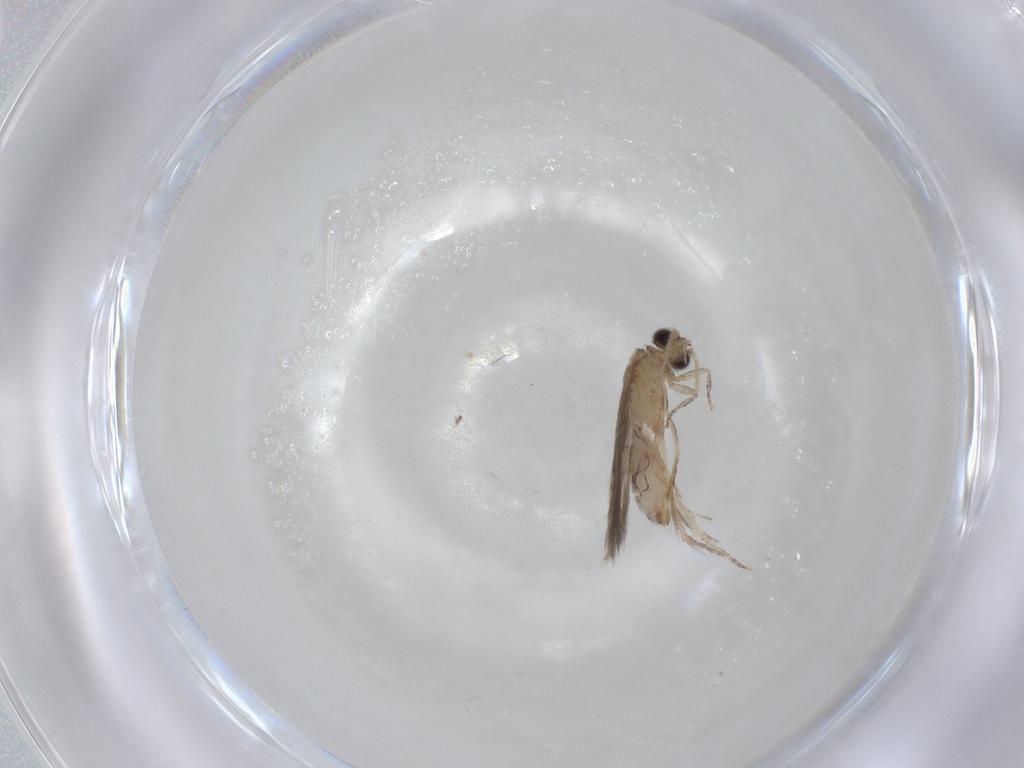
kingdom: Animalia
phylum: Arthropoda
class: Insecta
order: Trichoptera
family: Hydroptilidae
